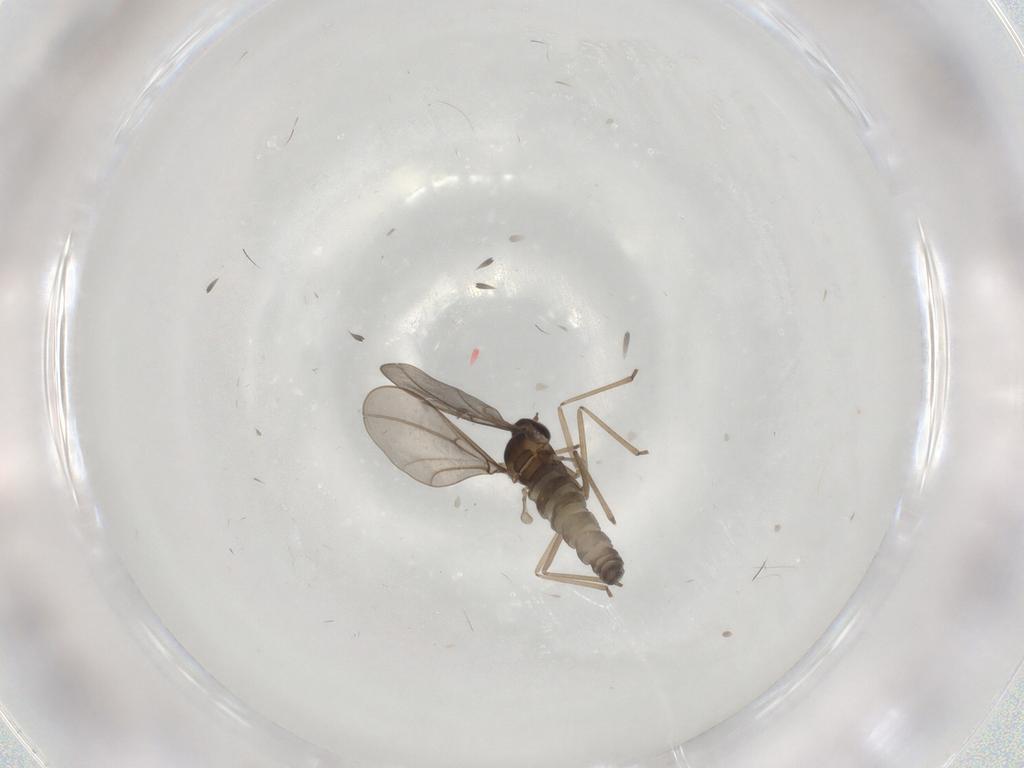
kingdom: Animalia
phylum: Arthropoda
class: Insecta
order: Diptera
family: Cecidomyiidae
